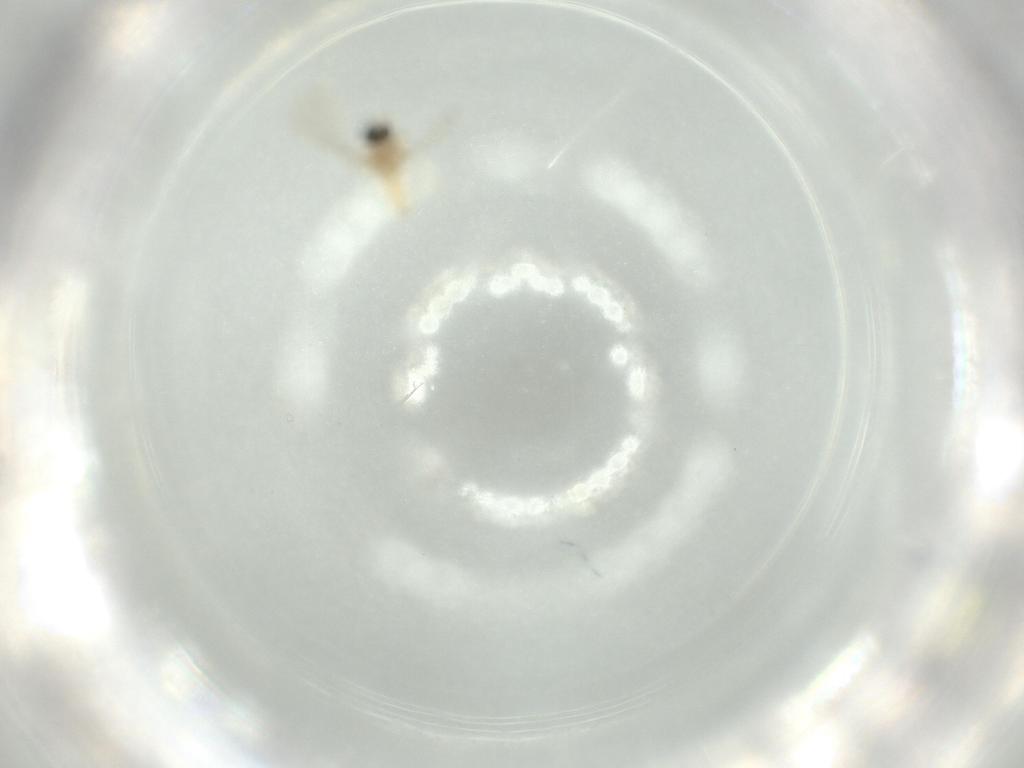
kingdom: Animalia
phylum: Arthropoda
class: Insecta
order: Diptera
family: Cecidomyiidae
